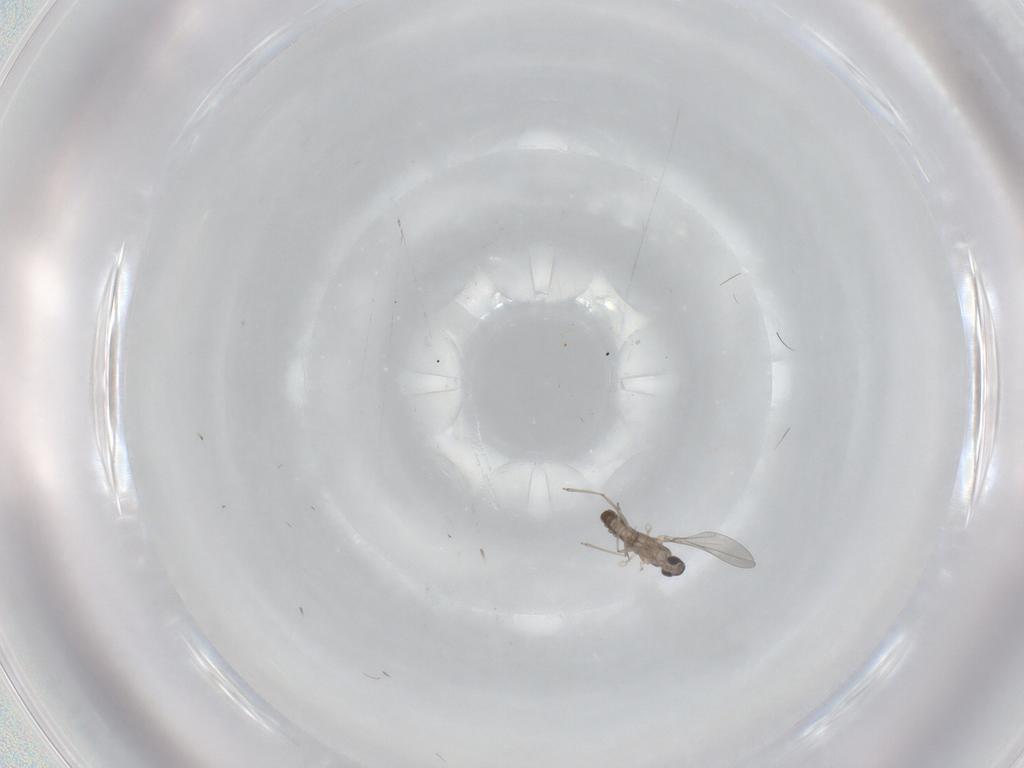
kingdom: Animalia
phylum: Arthropoda
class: Insecta
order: Diptera
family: Cecidomyiidae
